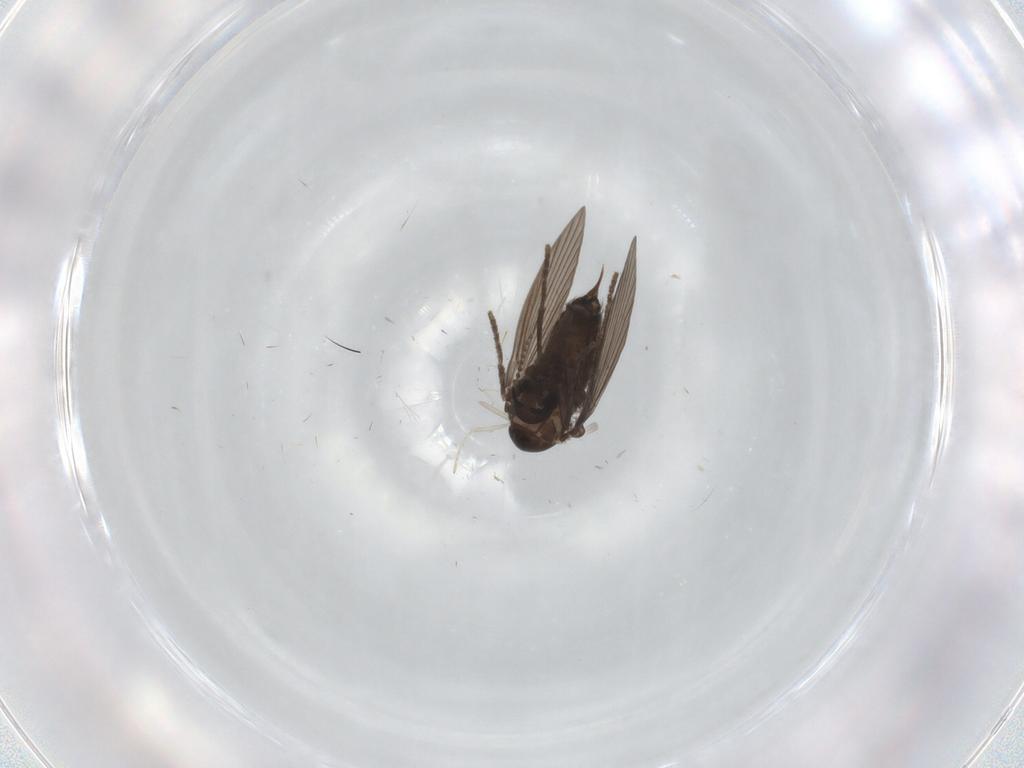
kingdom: Animalia
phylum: Arthropoda
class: Insecta
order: Diptera
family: Psychodidae
